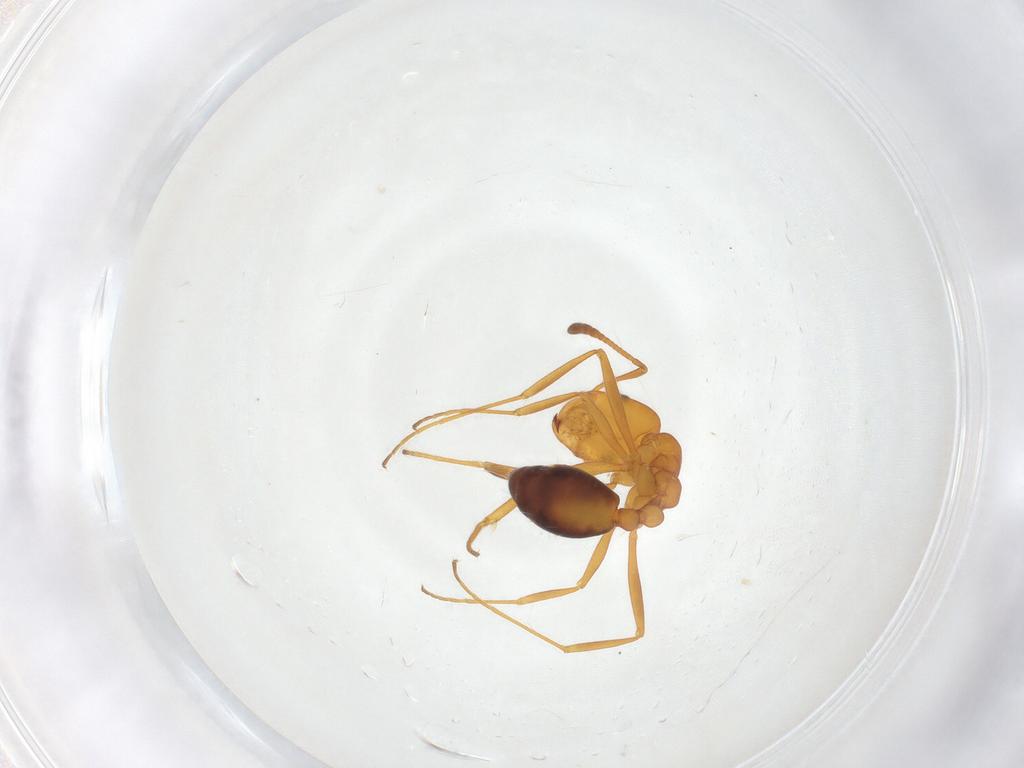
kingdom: Animalia
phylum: Arthropoda
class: Insecta
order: Hymenoptera
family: Formicidae
